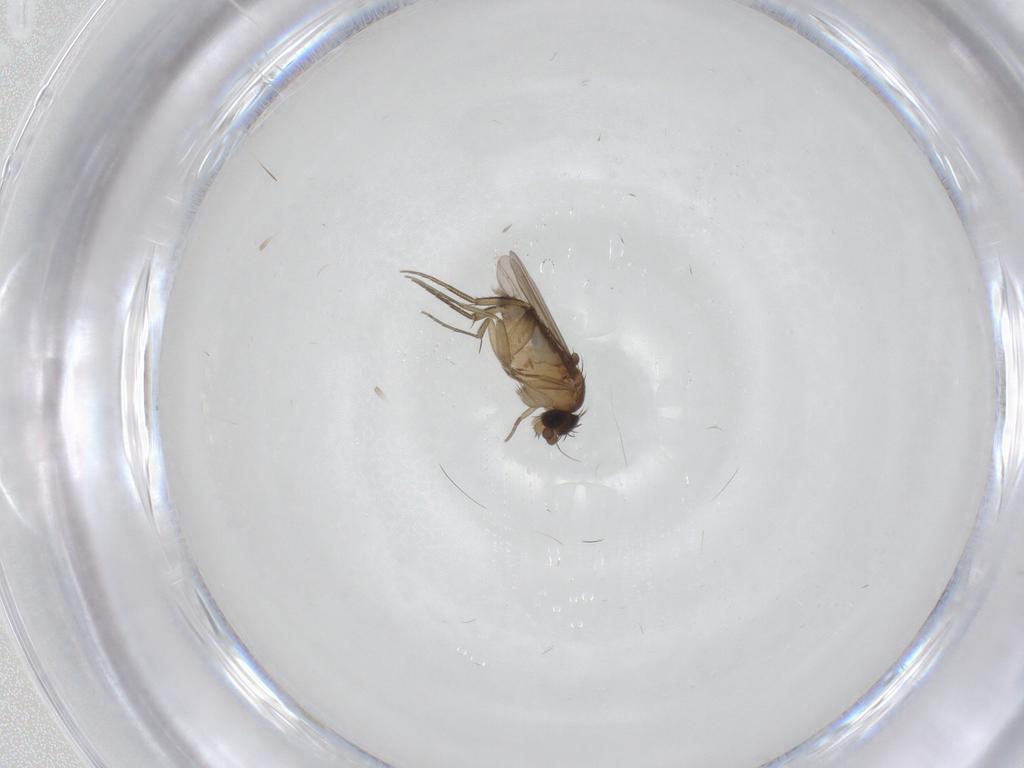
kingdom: Animalia
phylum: Arthropoda
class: Insecta
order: Diptera
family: Phoridae
